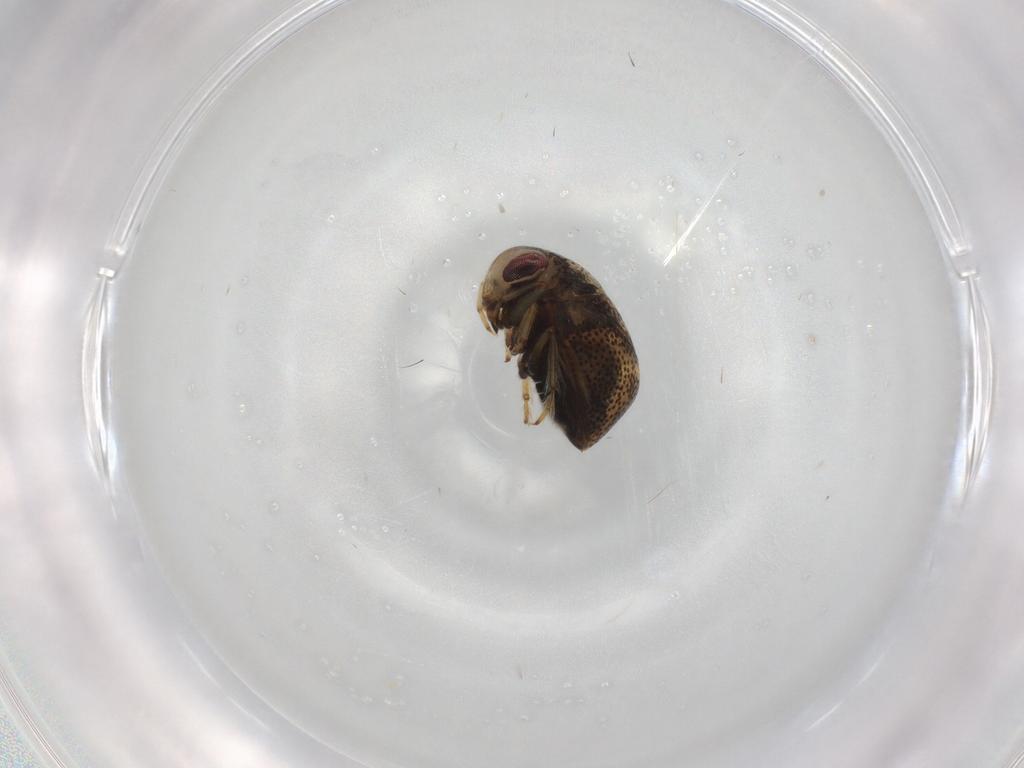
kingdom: Animalia
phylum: Arthropoda
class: Insecta
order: Hemiptera
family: Pleidae
